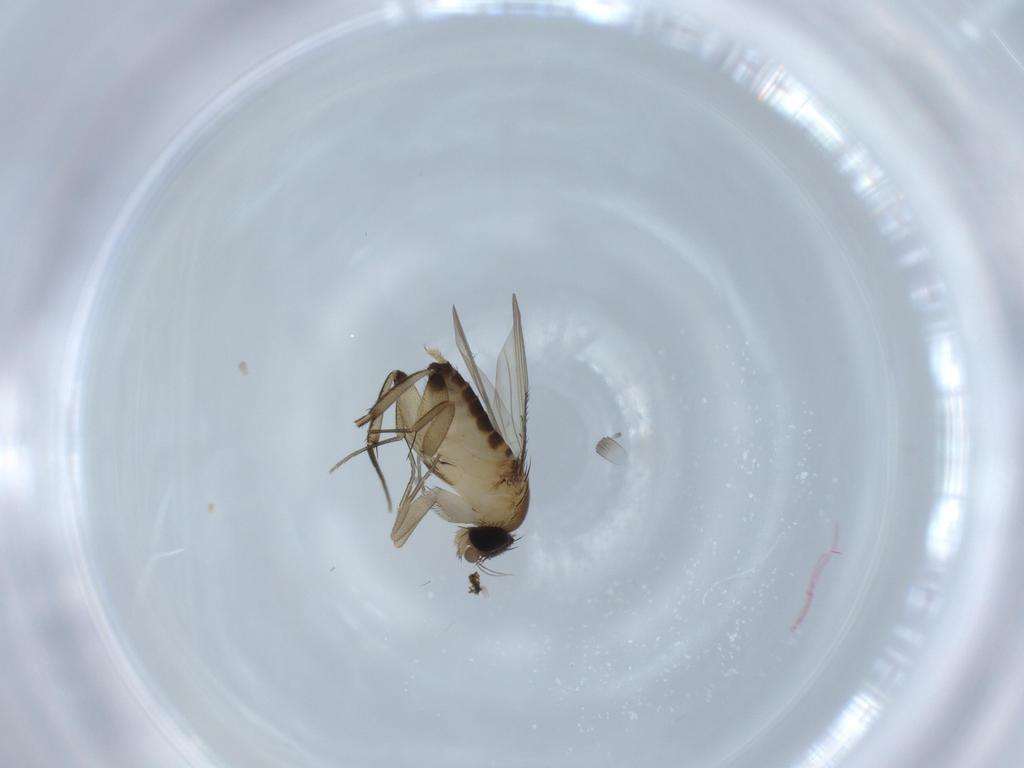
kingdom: Animalia
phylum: Arthropoda
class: Insecta
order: Diptera
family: Phoridae
